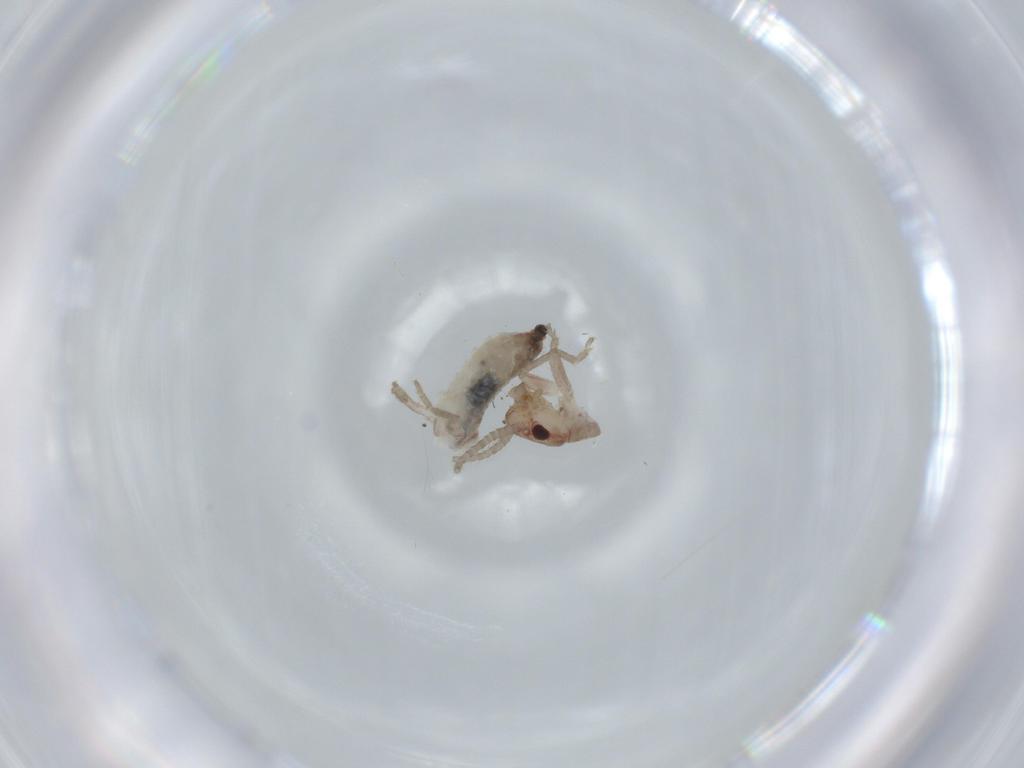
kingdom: Animalia
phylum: Arthropoda
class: Insecta
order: Orthoptera
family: Mogoplistidae
